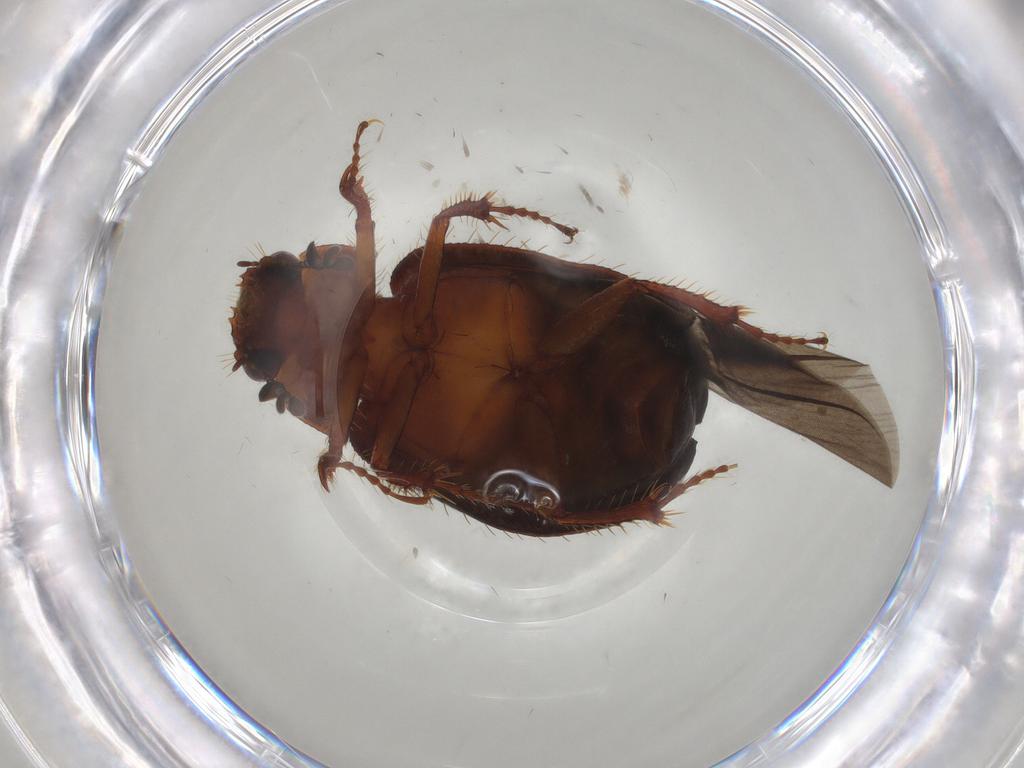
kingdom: Animalia
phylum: Arthropoda
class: Insecta
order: Coleoptera
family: Hybosoridae
